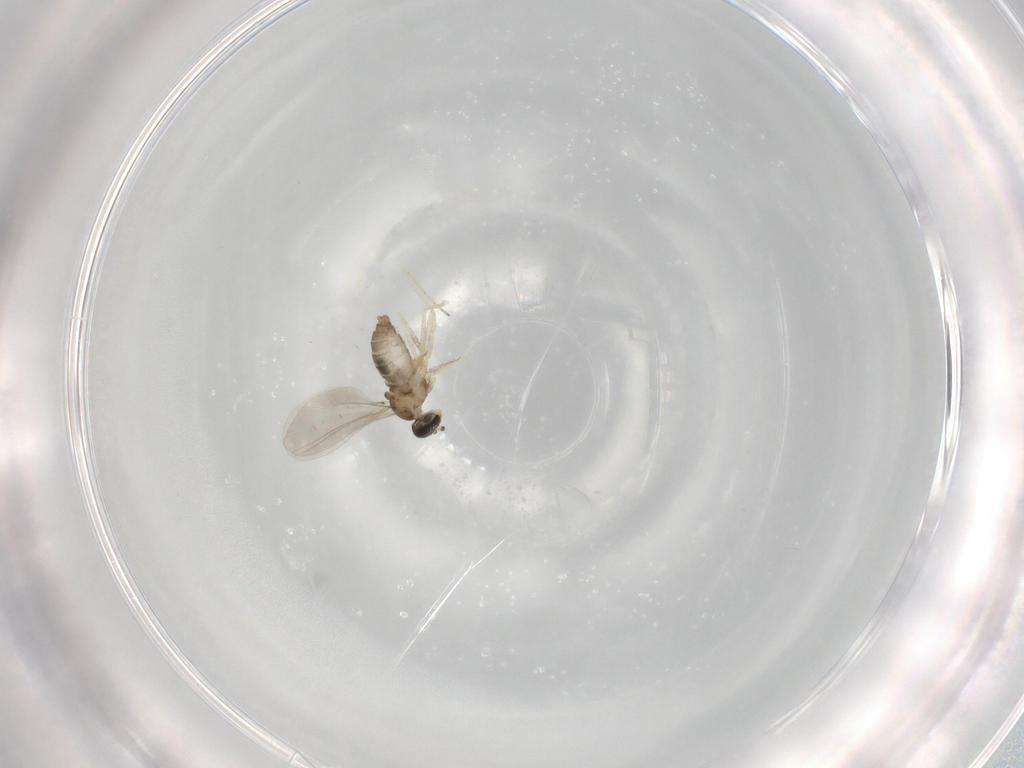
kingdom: Animalia
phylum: Arthropoda
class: Insecta
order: Diptera
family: Cecidomyiidae
